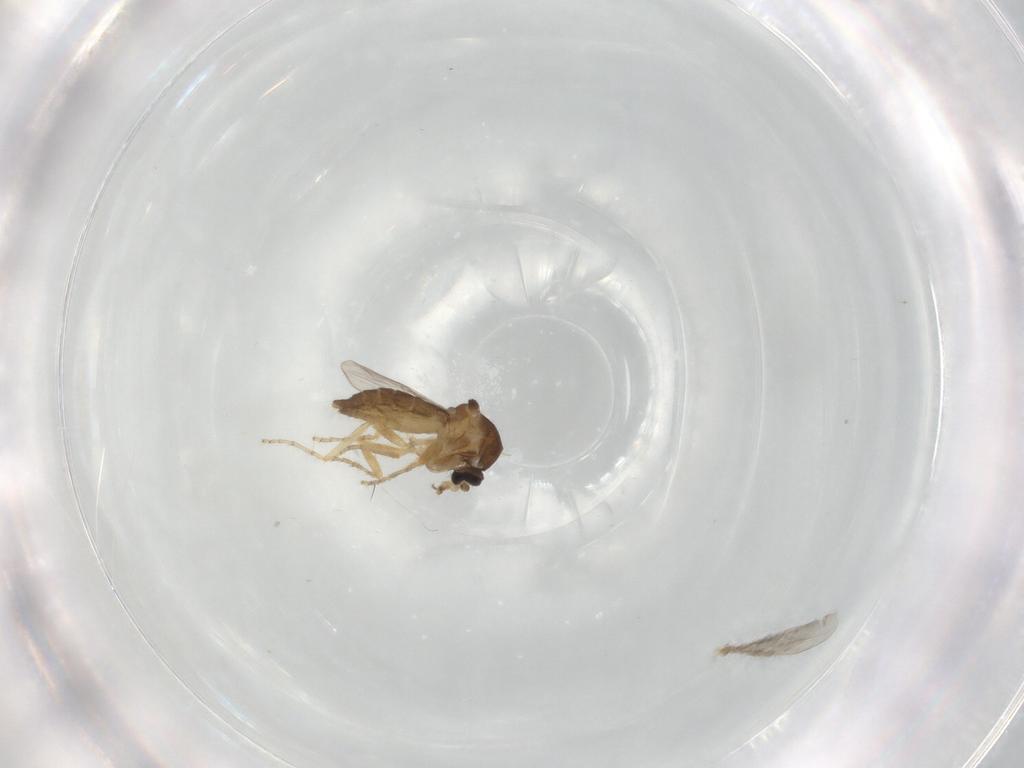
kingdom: Animalia
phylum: Arthropoda
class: Insecta
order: Diptera
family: Ceratopogonidae
